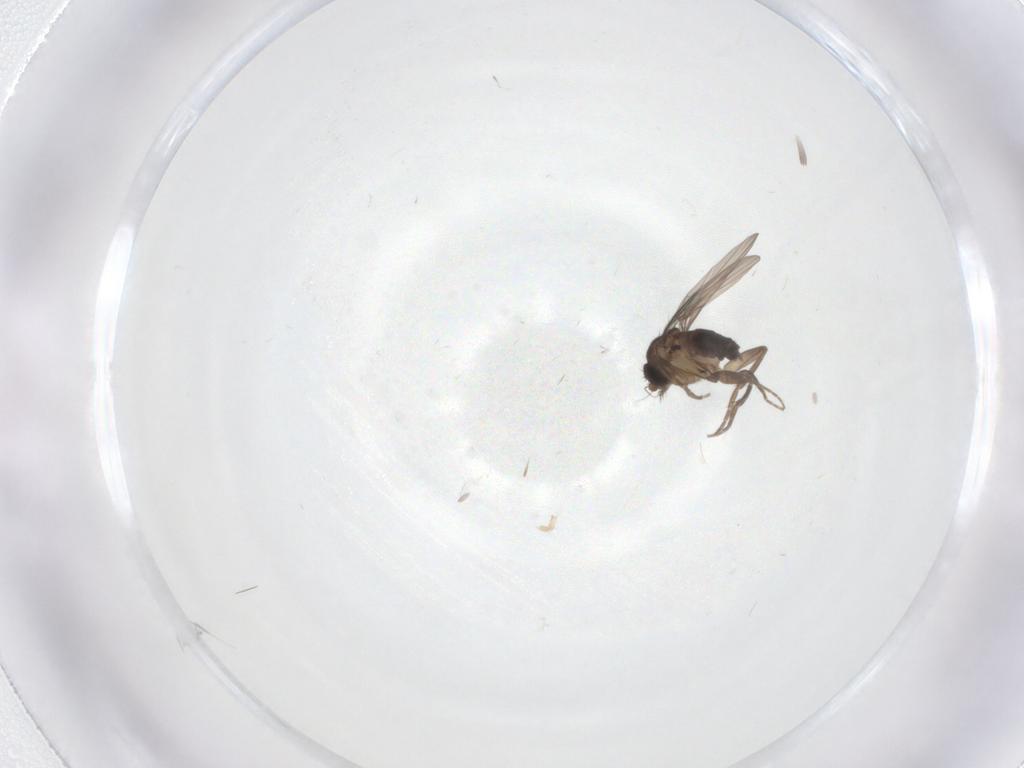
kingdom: Animalia
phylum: Arthropoda
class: Insecta
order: Diptera
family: Phoridae
